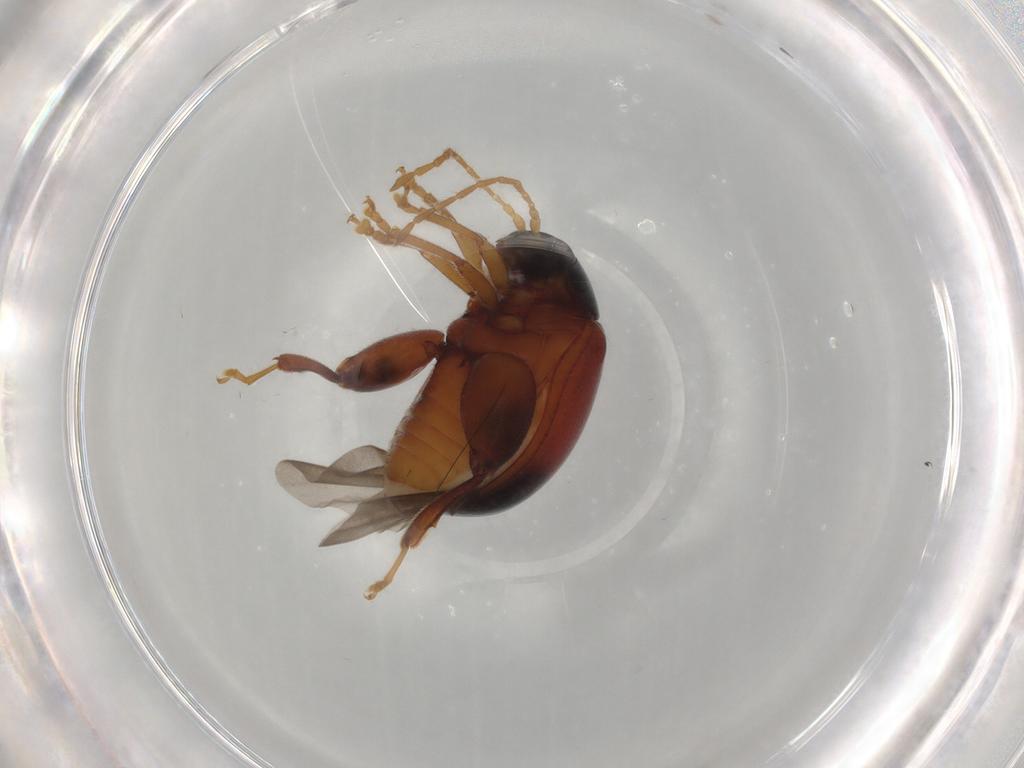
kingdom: Animalia
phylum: Arthropoda
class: Insecta
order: Coleoptera
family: Chrysomelidae
